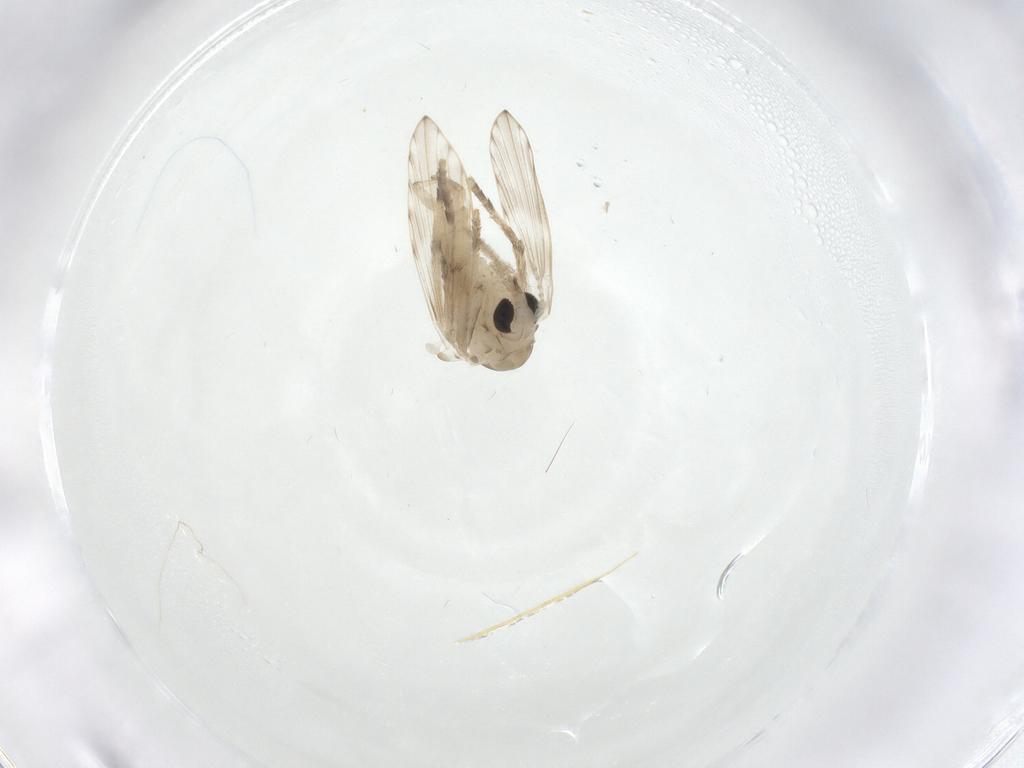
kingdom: Animalia
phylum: Arthropoda
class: Insecta
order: Diptera
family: Psychodidae
